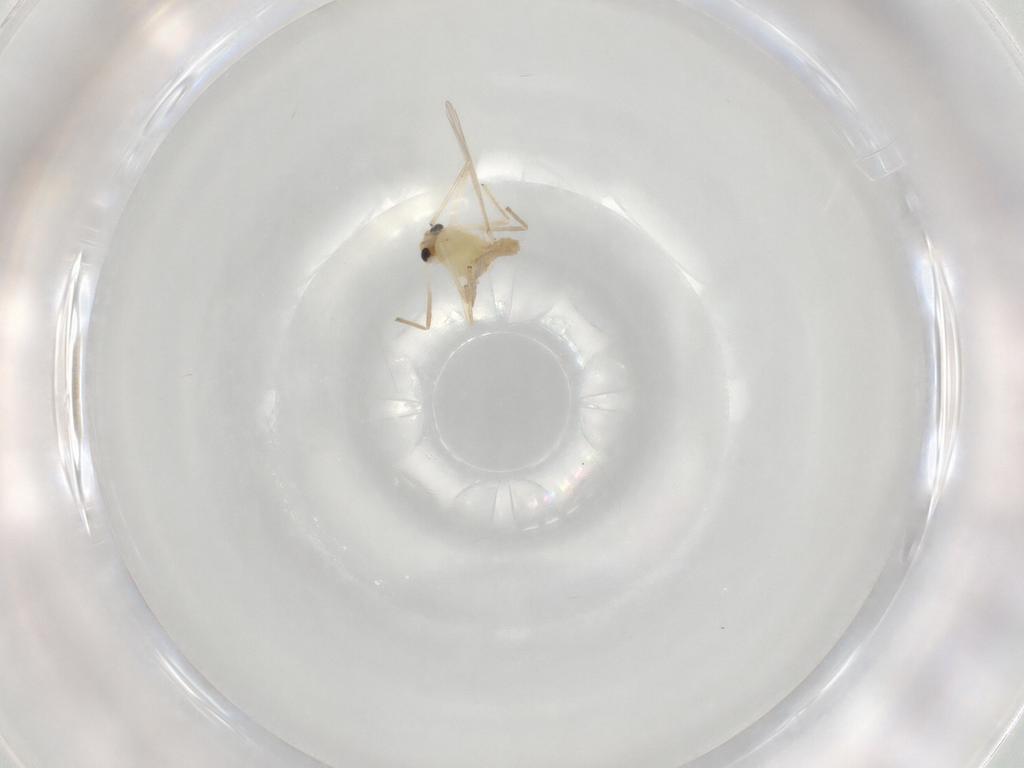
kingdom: Animalia
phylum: Arthropoda
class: Insecta
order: Diptera
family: Chironomidae
